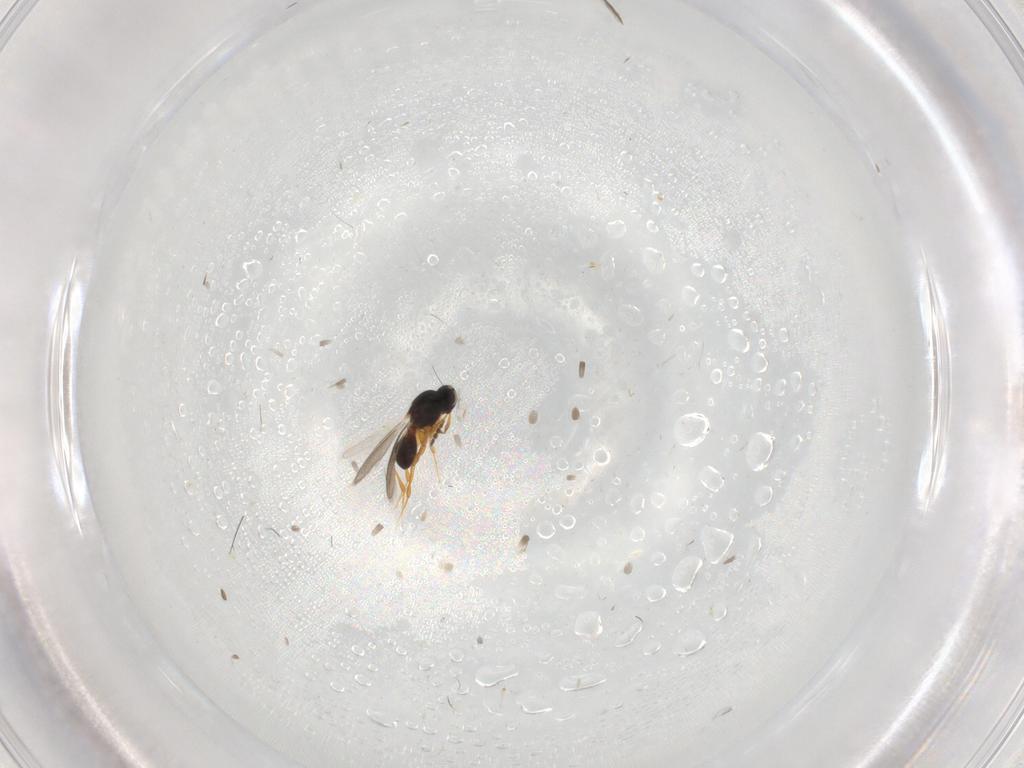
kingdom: Animalia
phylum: Arthropoda
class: Insecta
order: Hymenoptera
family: Platygastridae
